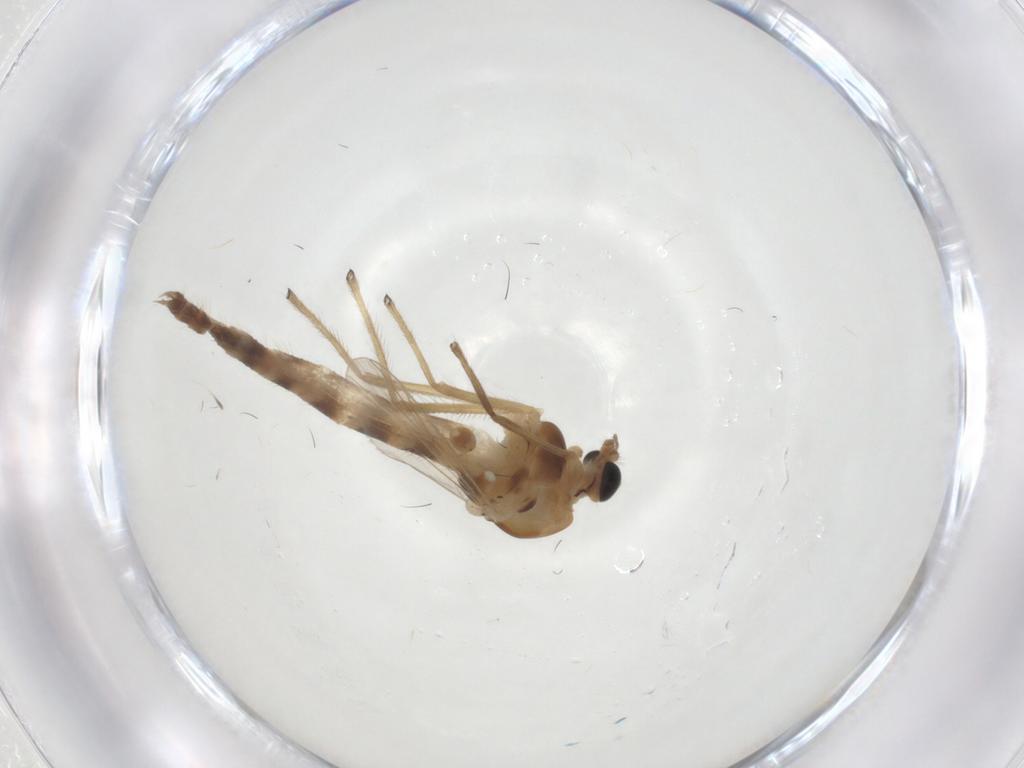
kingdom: Animalia
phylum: Arthropoda
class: Insecta
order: Diptera
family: Chironomidae
